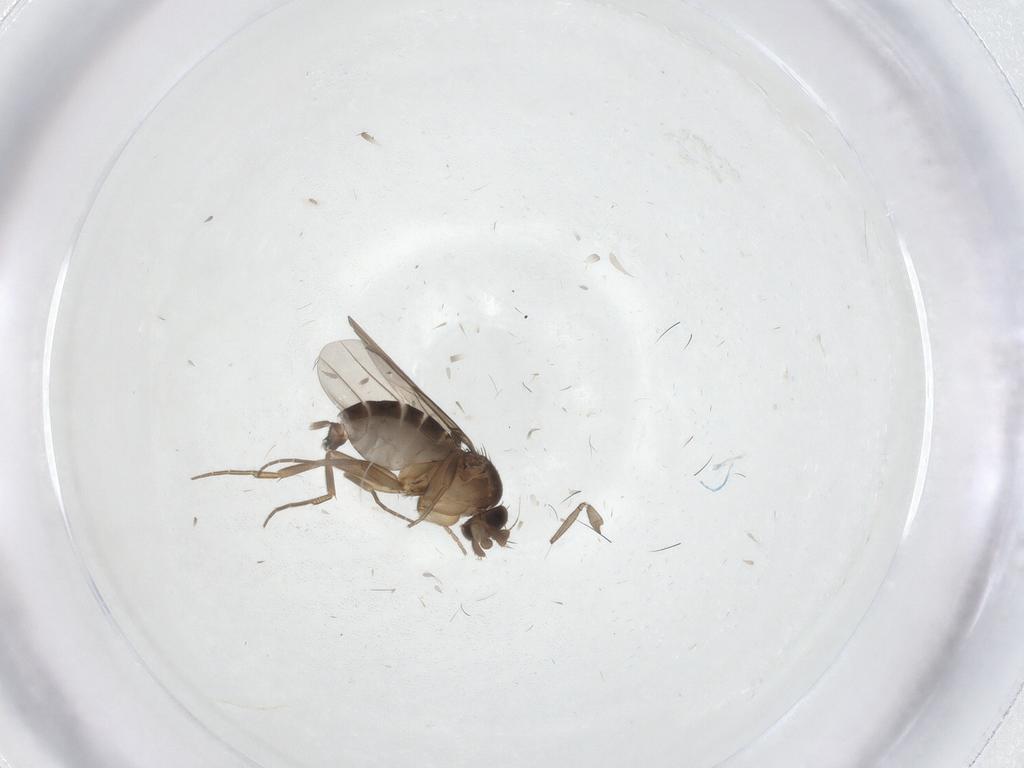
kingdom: Animalia
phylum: Arthropoda
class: Insecta
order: Diptera
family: Phoridae
